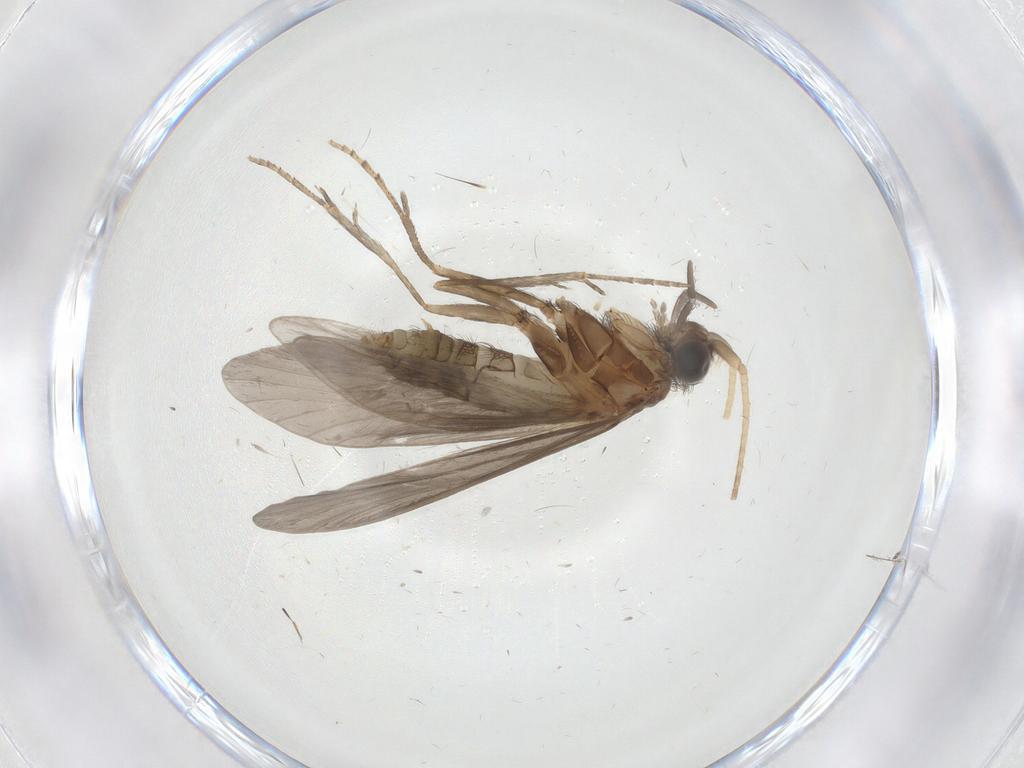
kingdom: Animalia
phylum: Arthropoda
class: Insecta
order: Trichoptera
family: Helicopsychidae
